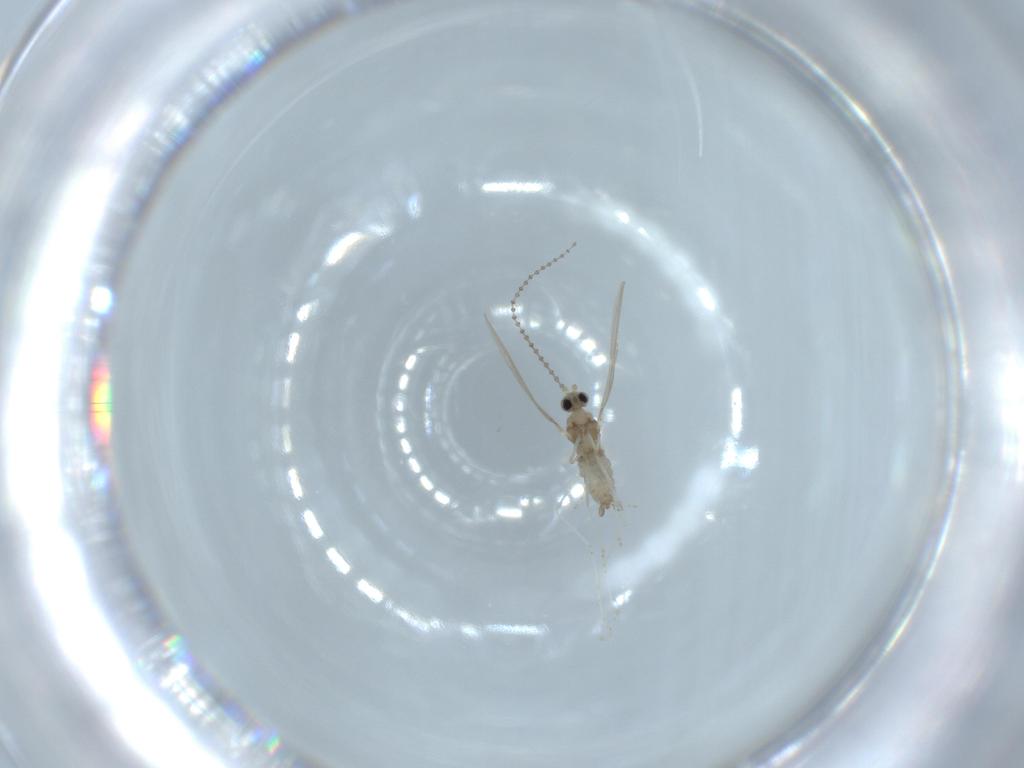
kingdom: Animalia
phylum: Arthropoda
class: Insecta
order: Diptera
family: Cecidomyiidae
